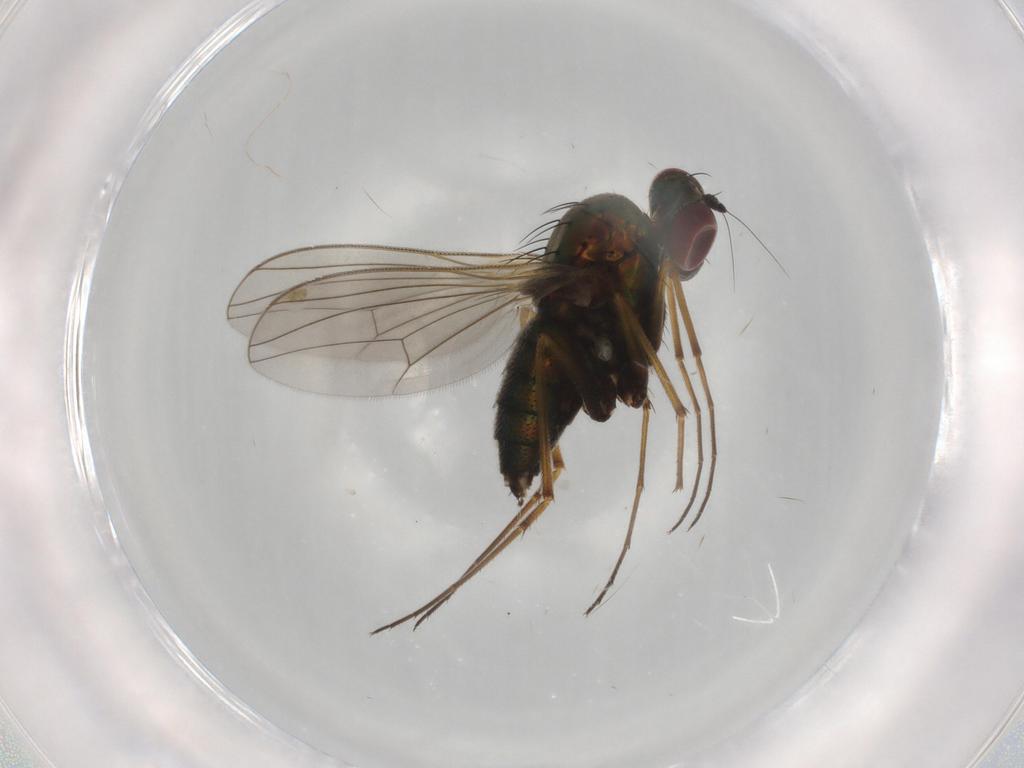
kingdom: Animalia
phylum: Arthropoda
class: Insecta
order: Diptera
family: Dolichopodidae
